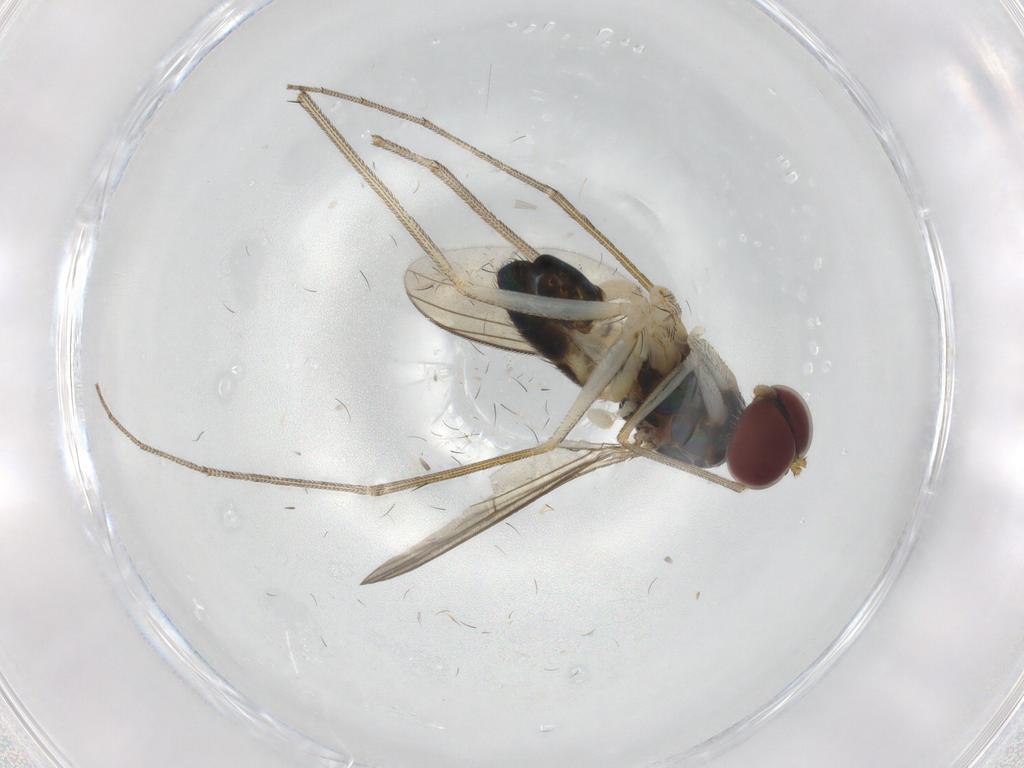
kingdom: Animalia
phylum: Arthropoda
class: Insecta
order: Diptera
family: Dolichopodidae
